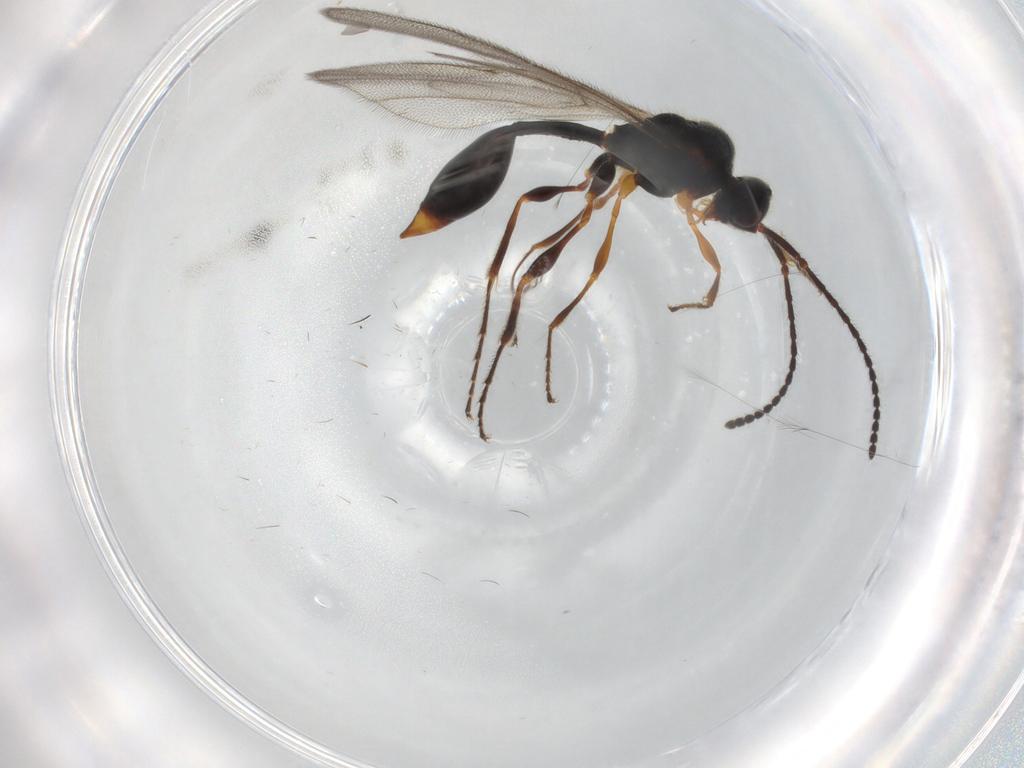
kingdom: Animalia
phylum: Arthropoda
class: Insecta
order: Hymenoptera
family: Diapriidae
